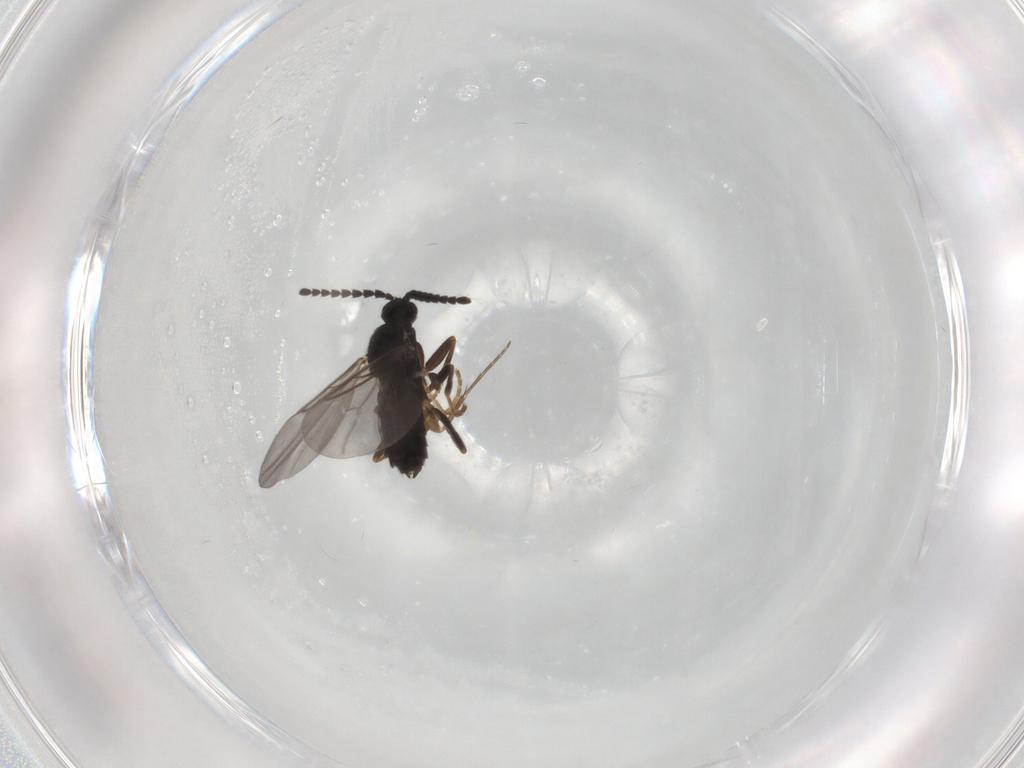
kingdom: Animalia
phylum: Arthropoda
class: Insecta
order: Diptera
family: Scatopsidae
